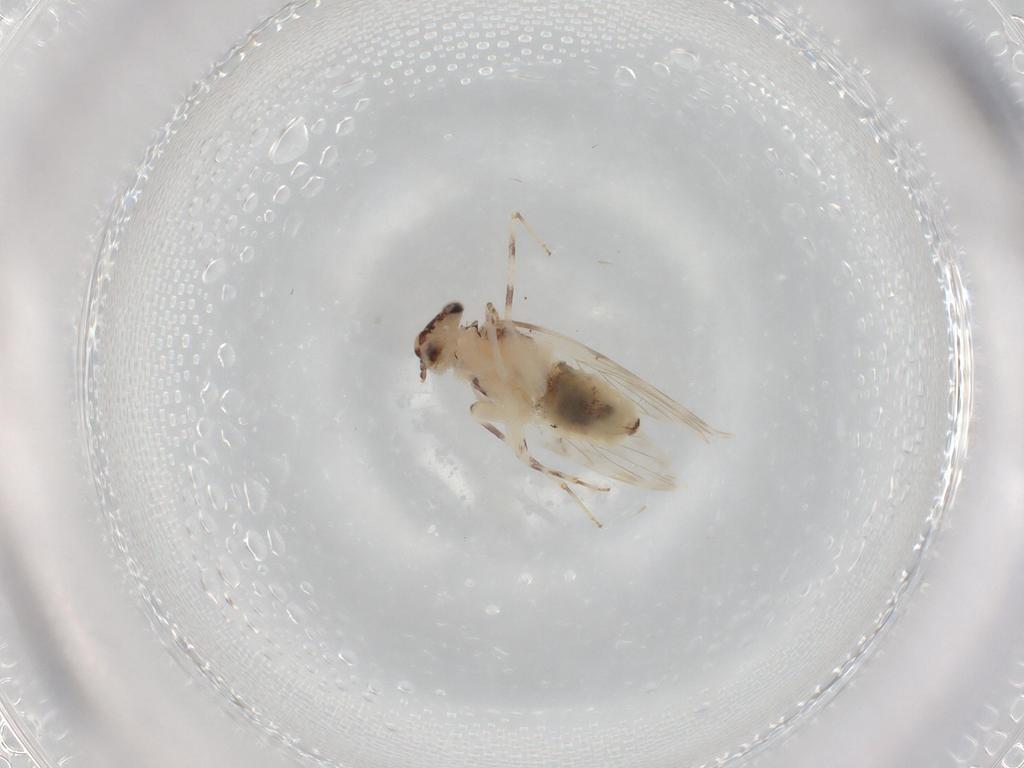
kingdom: Animalia
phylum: Arthropoda
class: Insecta
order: Psocodea
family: Lepidopsocidae
